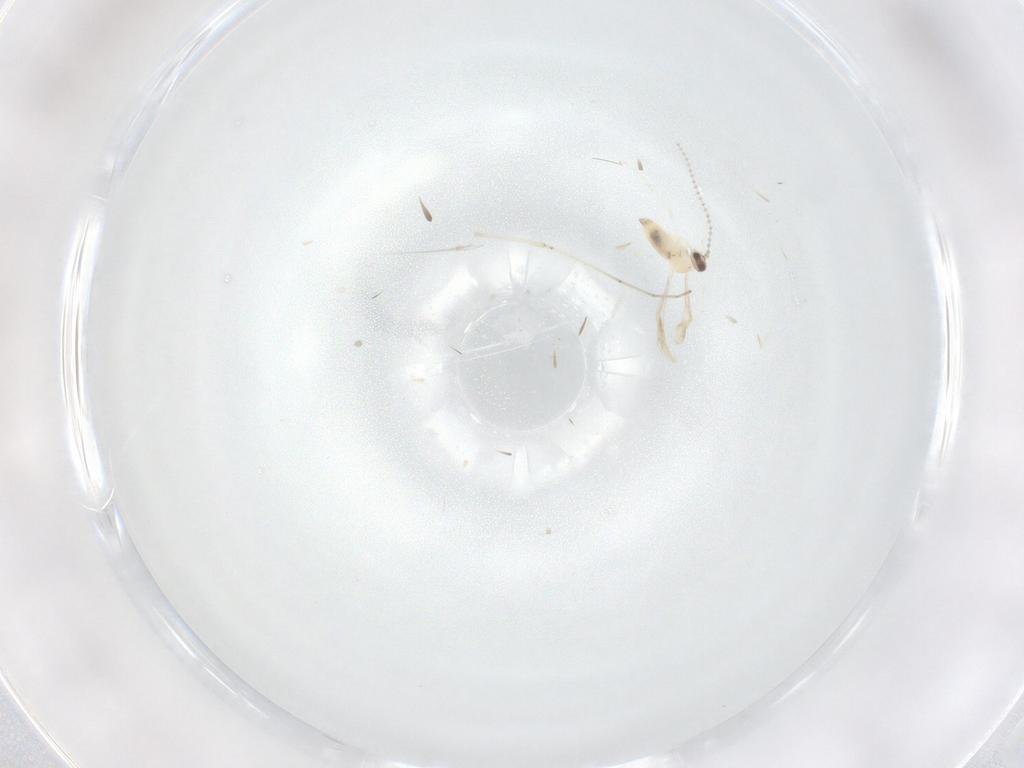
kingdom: Animalia
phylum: Arthropoda
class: Insecta
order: Diptera
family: Cecidomyiidae
